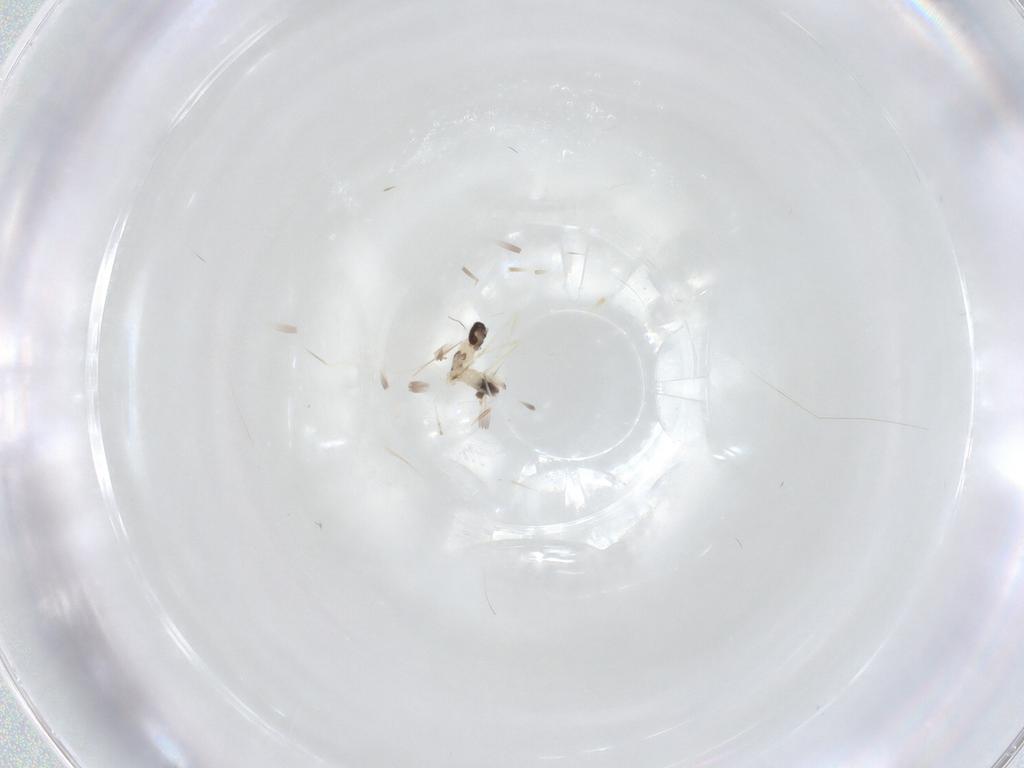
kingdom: Animalia
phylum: Arthropoda
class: Insecta
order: Diptera
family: Cecidomyiidae
